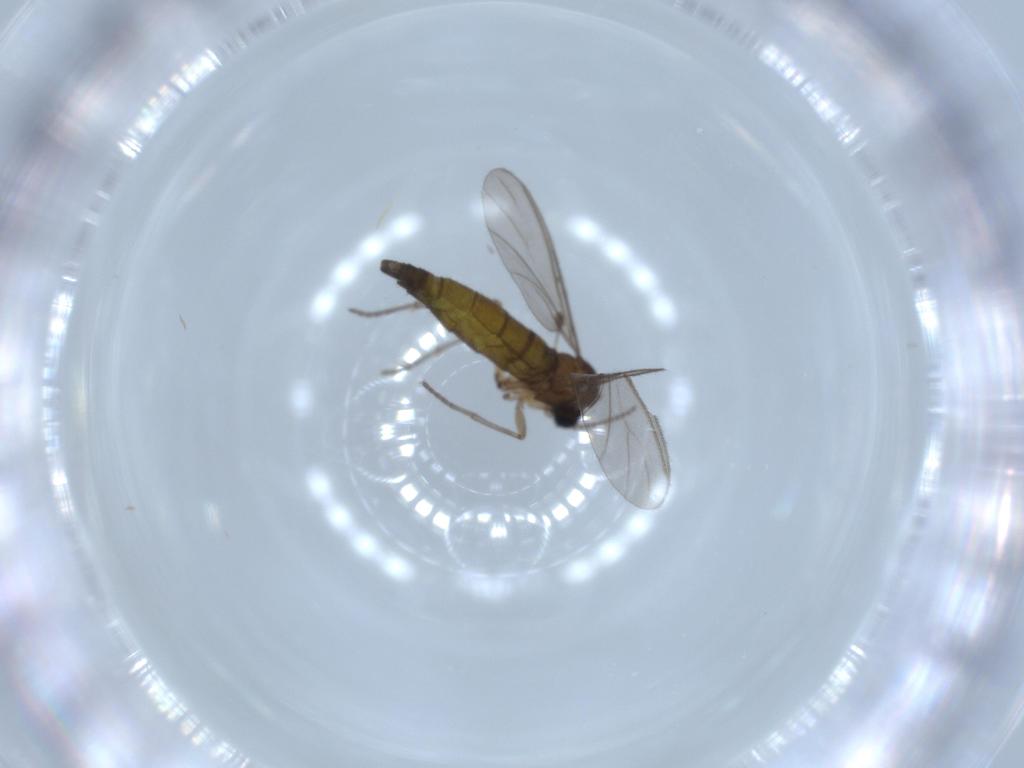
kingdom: Animalia
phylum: Arthropoda
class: Insecta
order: Diptera
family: Sciaridae
